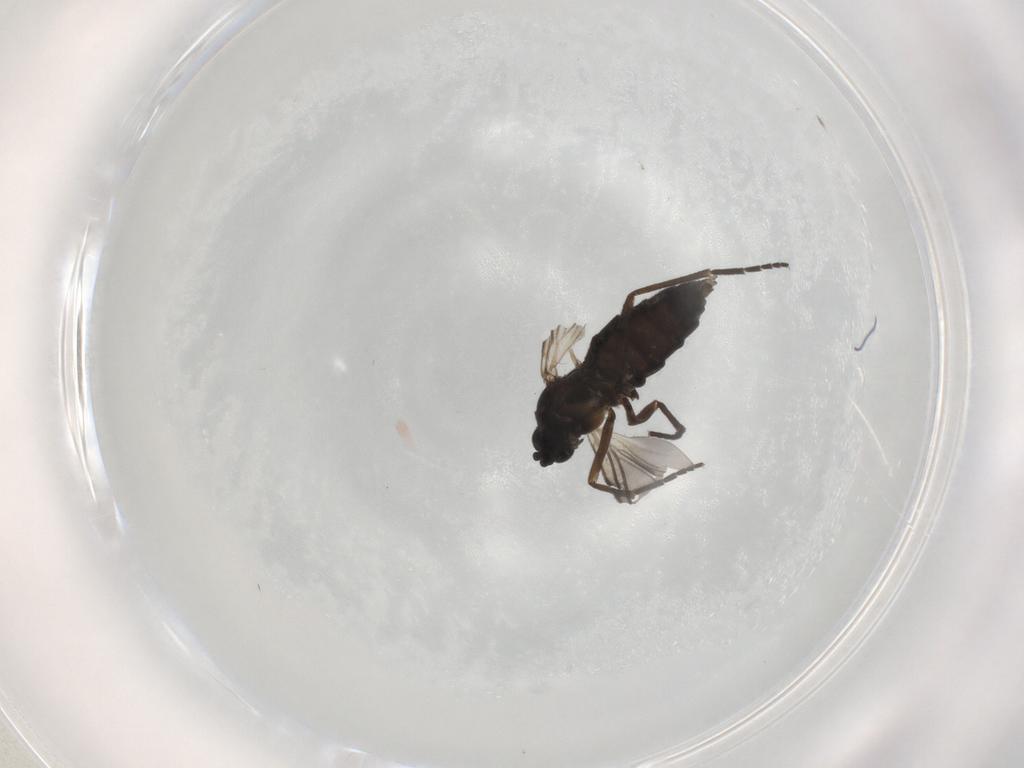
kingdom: Animalia
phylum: Arthropoda
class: Insecta
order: Diptera
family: Sciaridae
